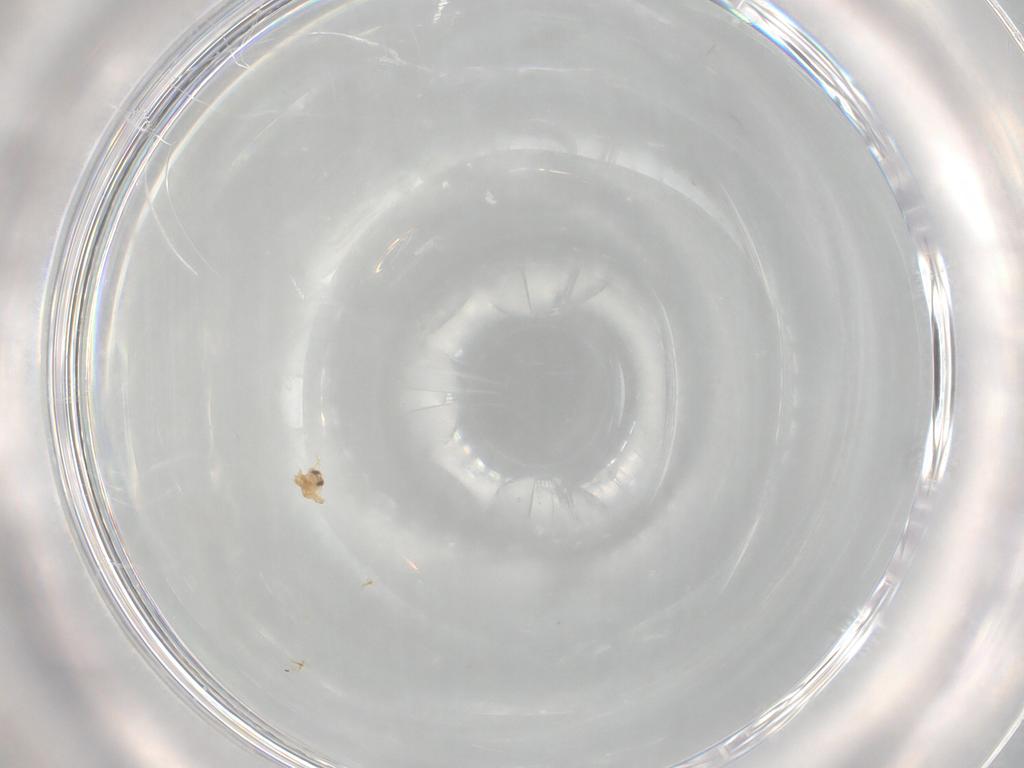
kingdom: Animalia
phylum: Arthropoda
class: Insecta
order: Hymenoptera
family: Mymaridae
